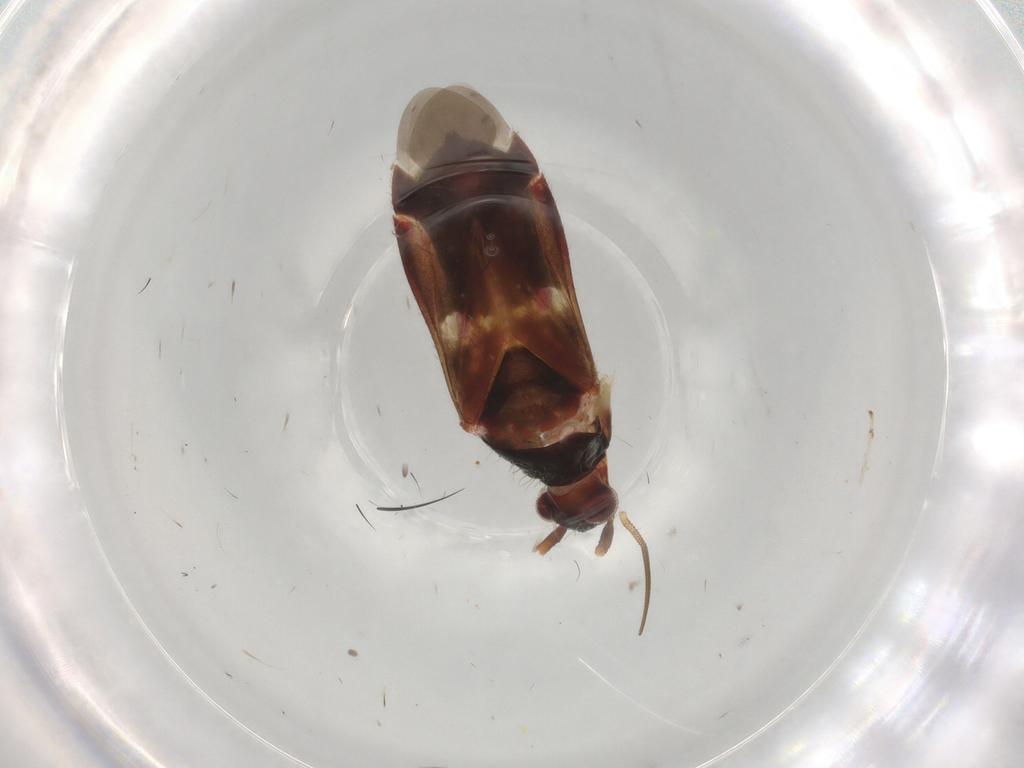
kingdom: Animalia
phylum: Arthropoda
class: Insecta
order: Hemiptera
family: Miridae
